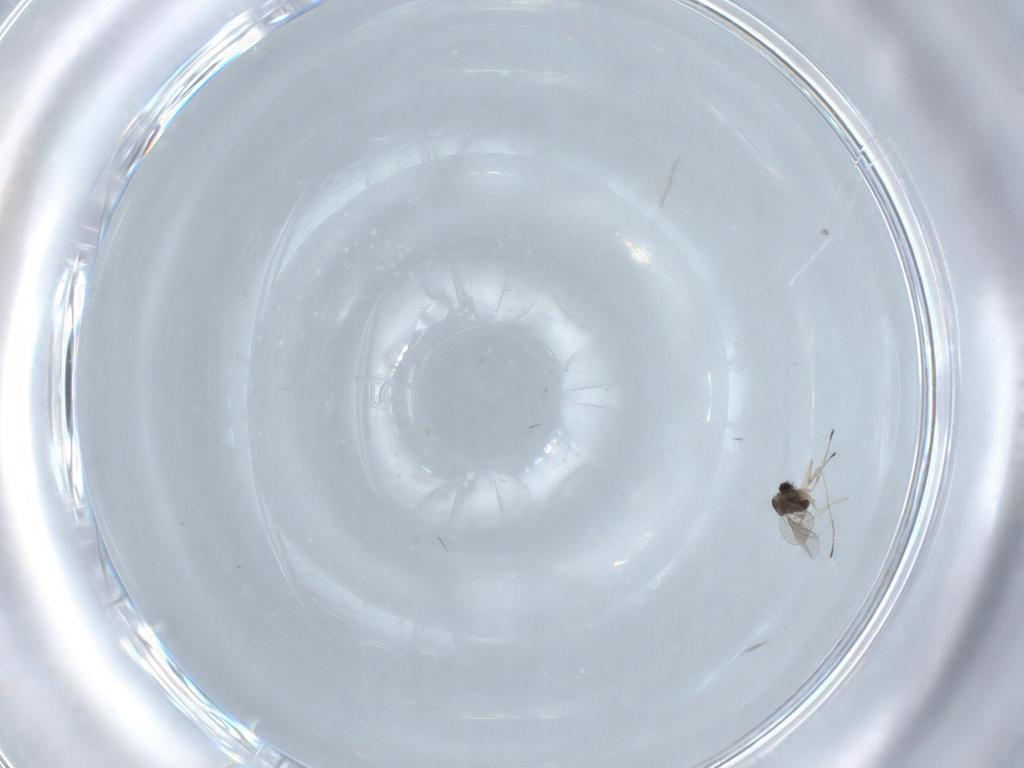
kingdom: Animalia
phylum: Arthropoda
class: Insecta
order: Diptera
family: Cecidomyiidae
